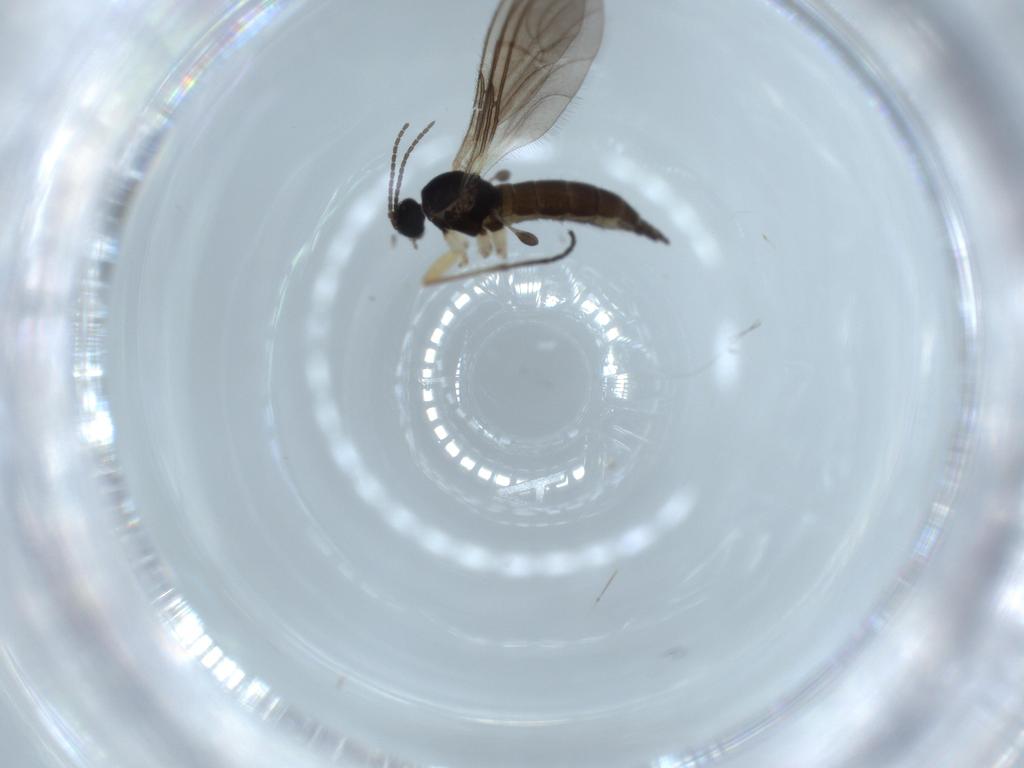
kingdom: Animalia
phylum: Arthropoda
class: Insecta
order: Diptera
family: Sciaridae
